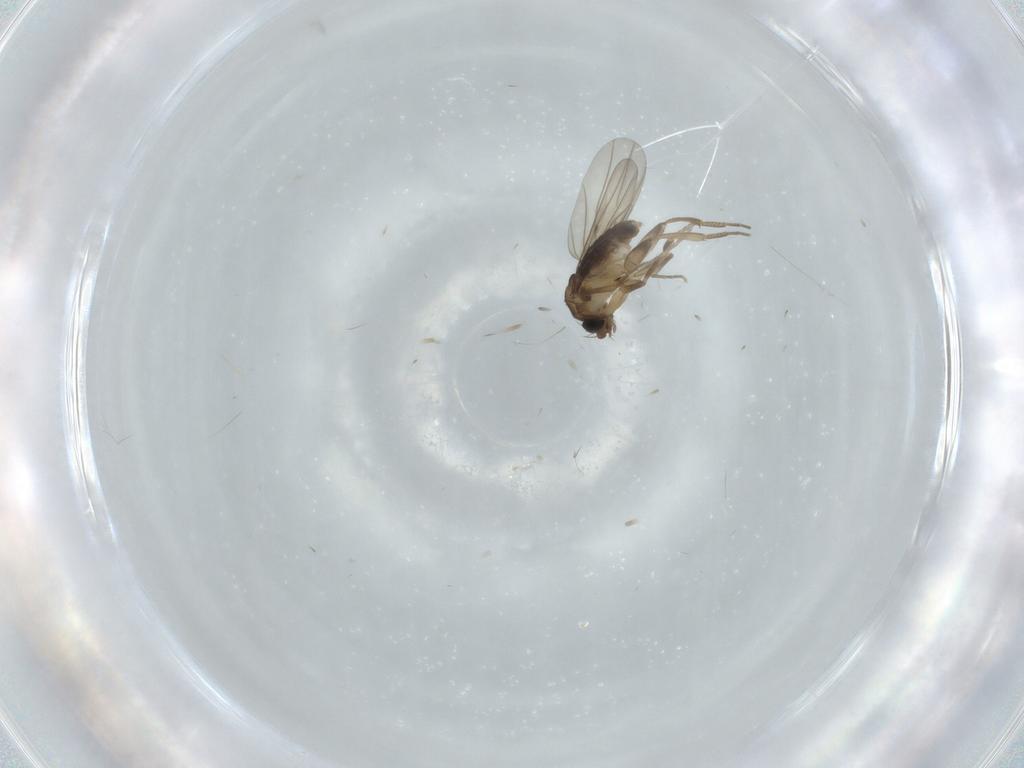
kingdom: Animalia
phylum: Arthropoda
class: Insecta
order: Diptera
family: Phoridae
